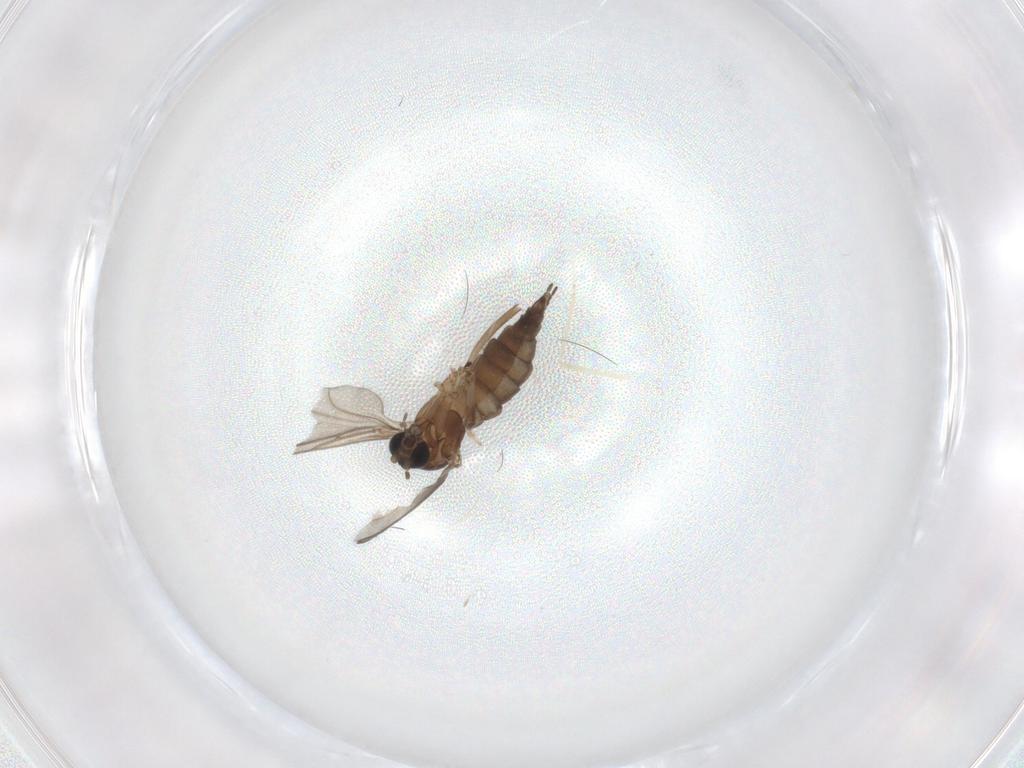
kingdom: Animalia
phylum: Arthropoda
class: Insecta
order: Diptera
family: Sciaridae
